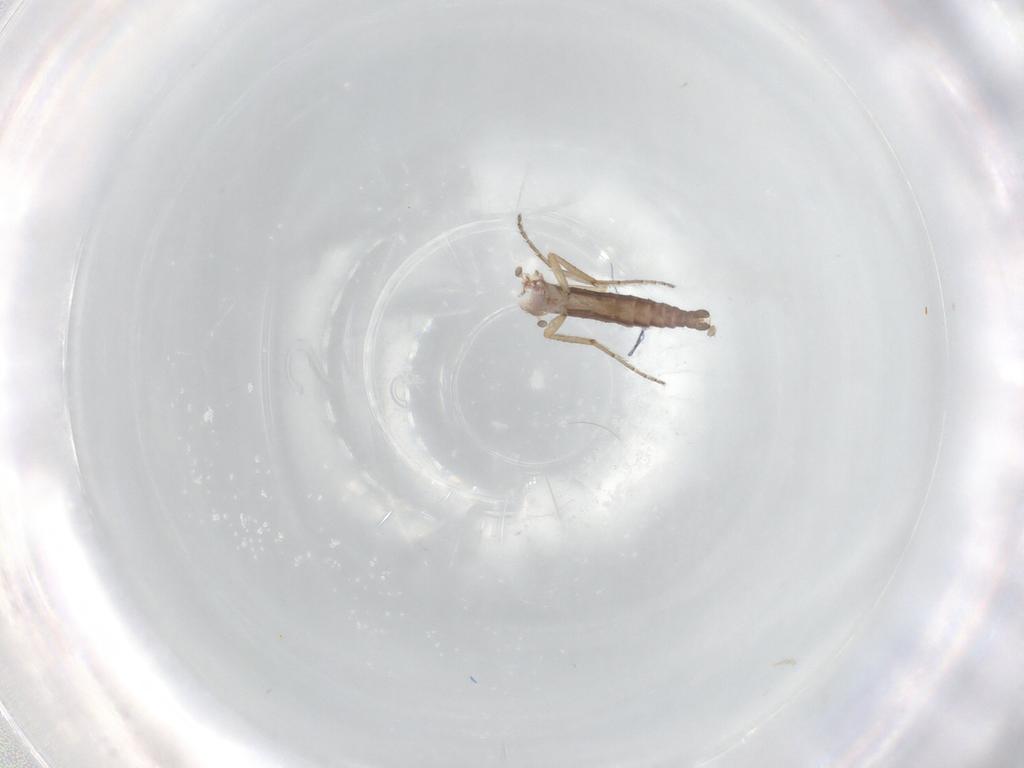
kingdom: Animalia
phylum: Arthropoda
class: Insecta
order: Diptera
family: Ceratopogonidae
